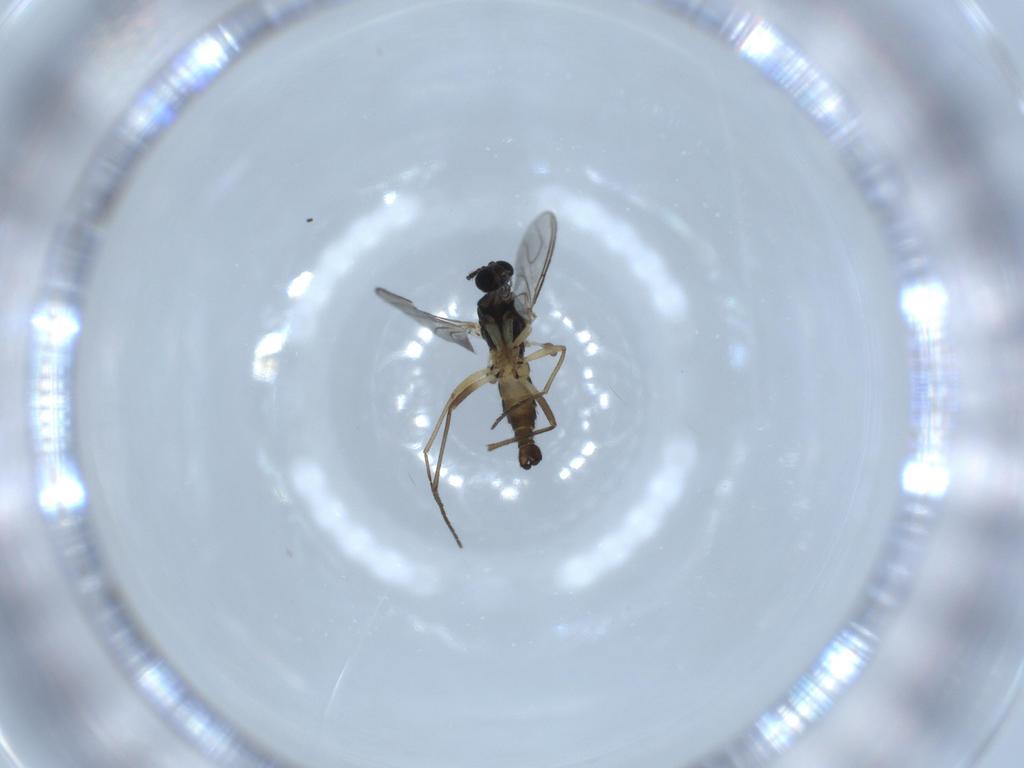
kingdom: Animalia
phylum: Arthropoda
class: Insecta
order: Diptera
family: Sciaridae
